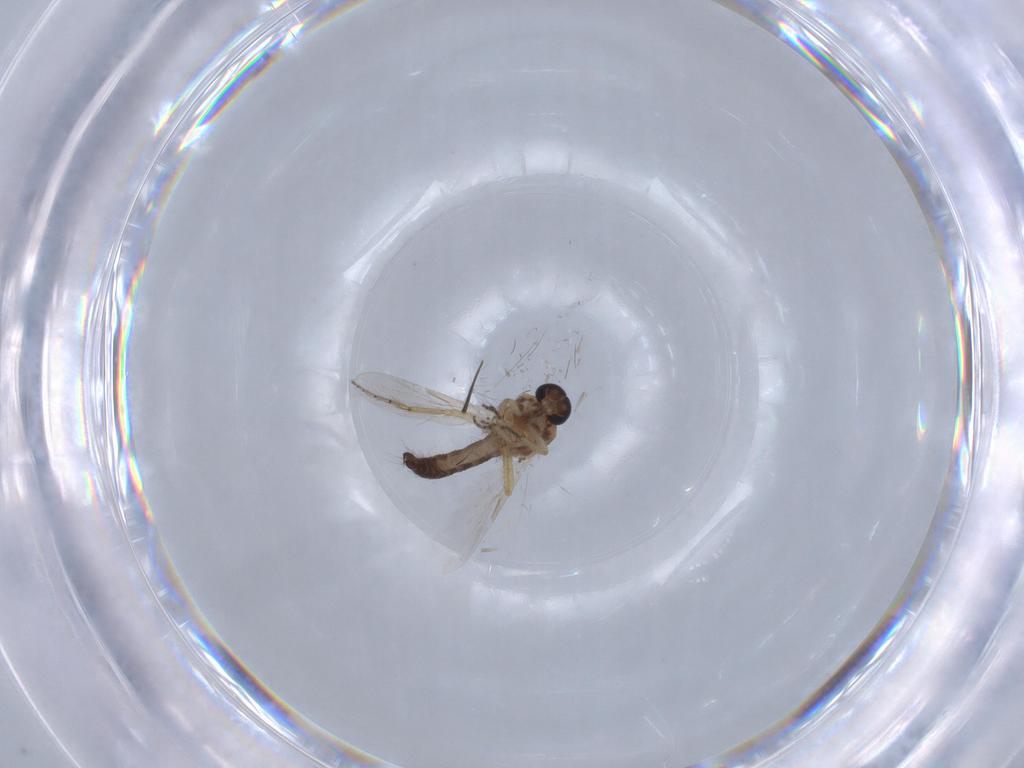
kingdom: Animalia
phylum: Arthropoda
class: Insecta
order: Diptera
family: Ceratopogonidae
